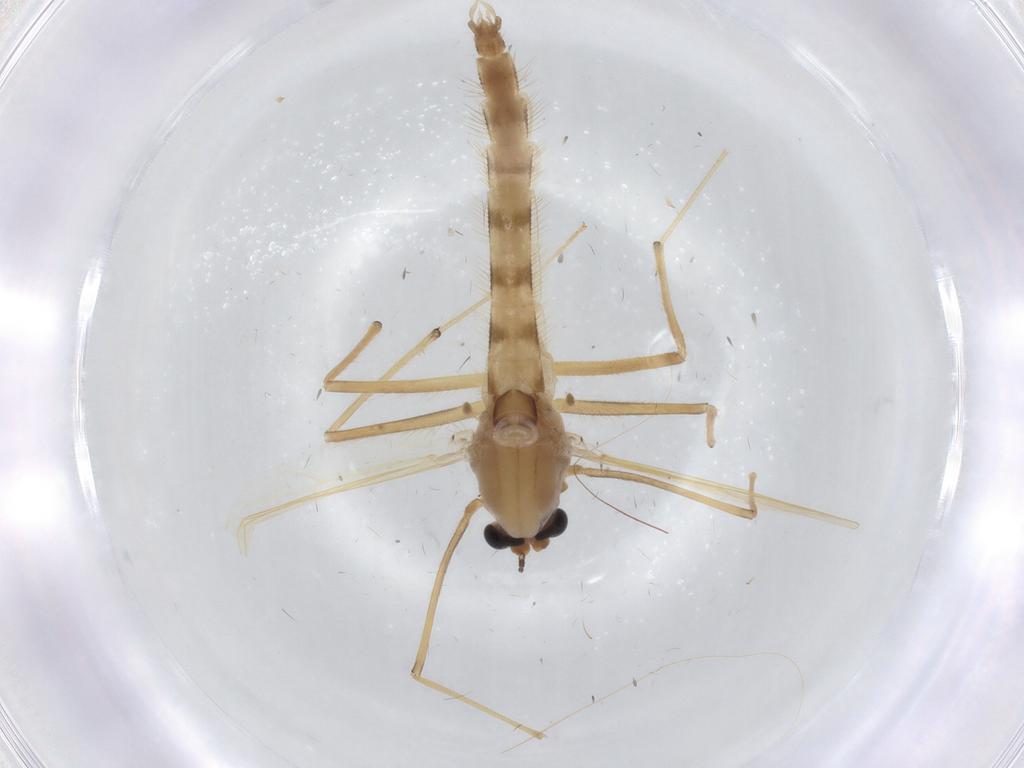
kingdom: Animalia
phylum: Arthropoda
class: Insecta
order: Diptera
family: Chironomidae
